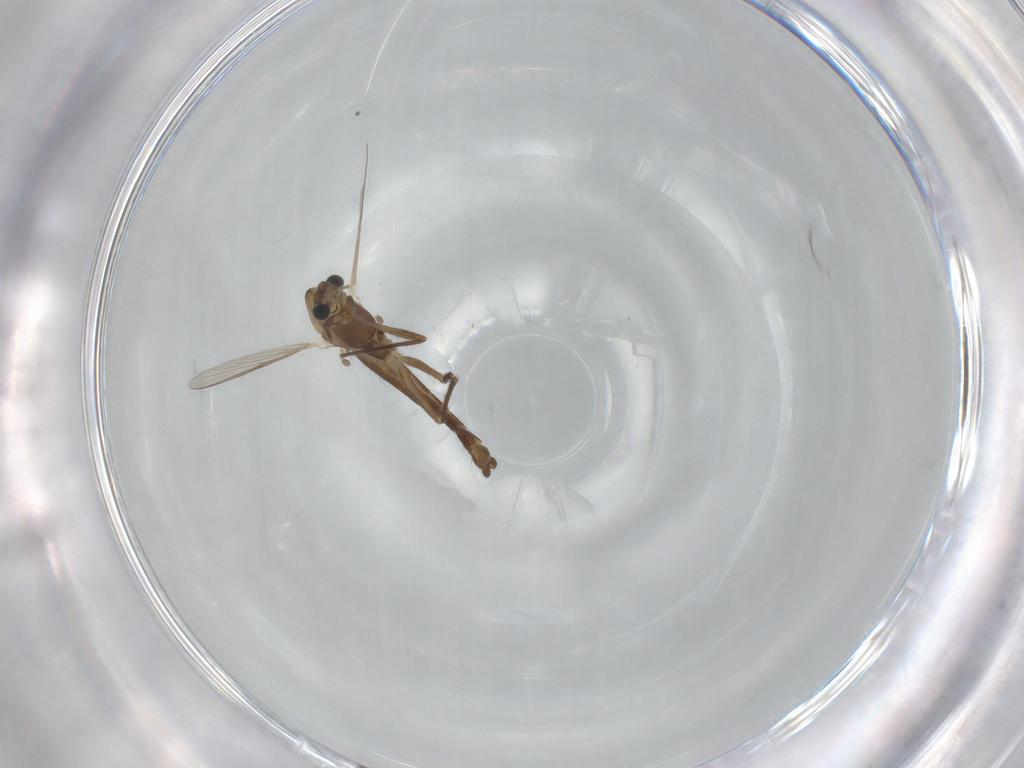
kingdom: Animalia
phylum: Arthropoda
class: Insecta
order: Diptera
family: Chironomidae
